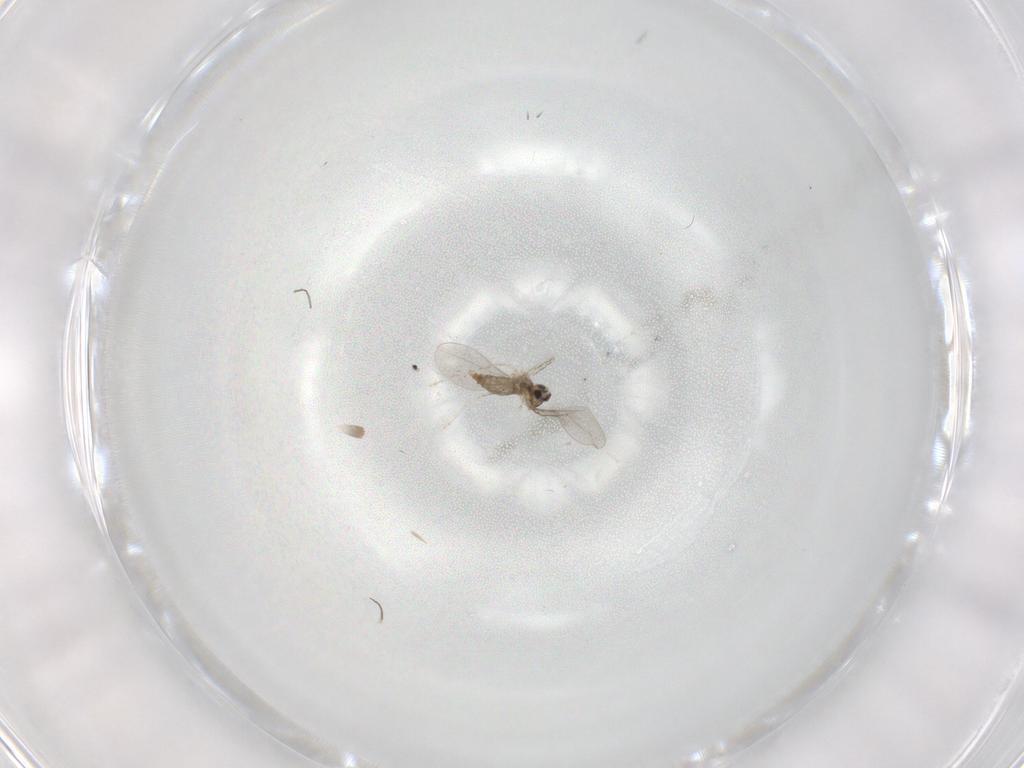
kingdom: Animalia
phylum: Arthropoda
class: Insecta
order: Diptera
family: Cecidomyiidae
